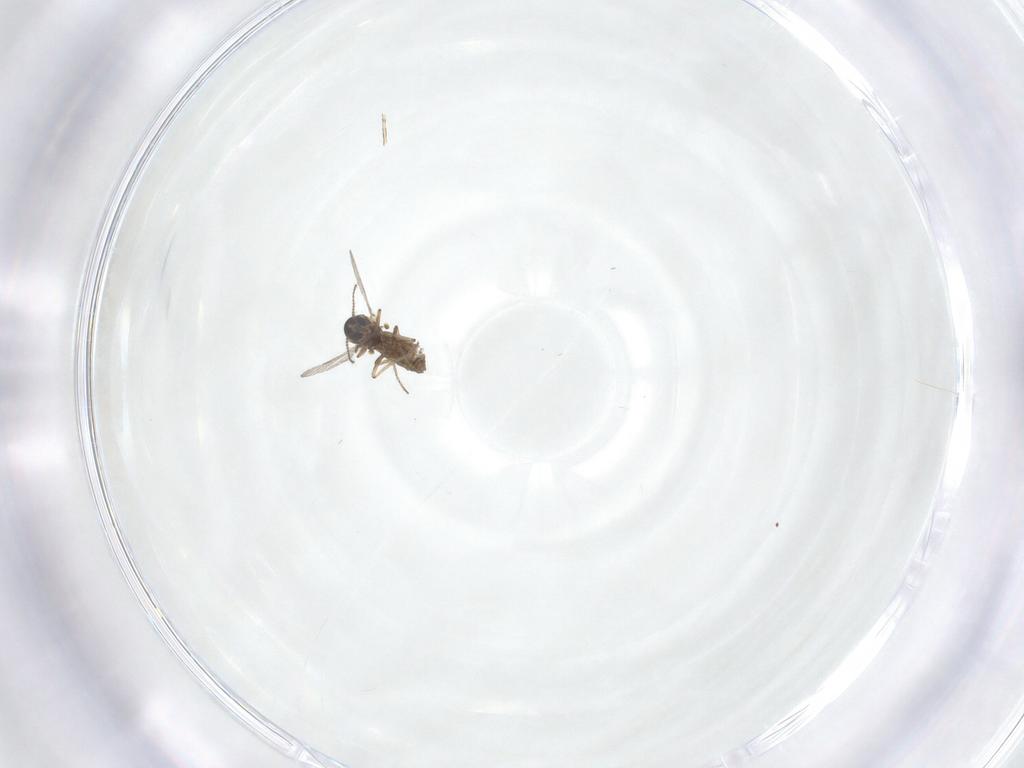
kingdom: Animalia
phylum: Arthropoda
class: Insecta
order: Diptera
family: Ceratopogonidae
